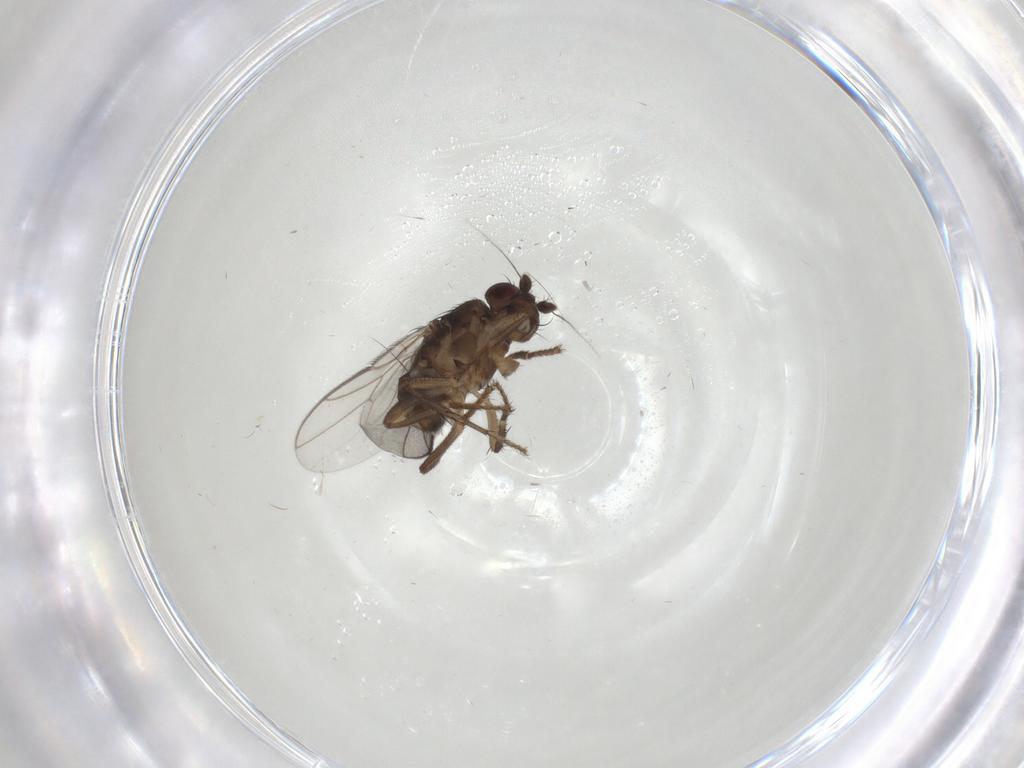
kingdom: Animalia
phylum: Arthropoda
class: Insecta
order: Diptera
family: Sphaeroceridae
